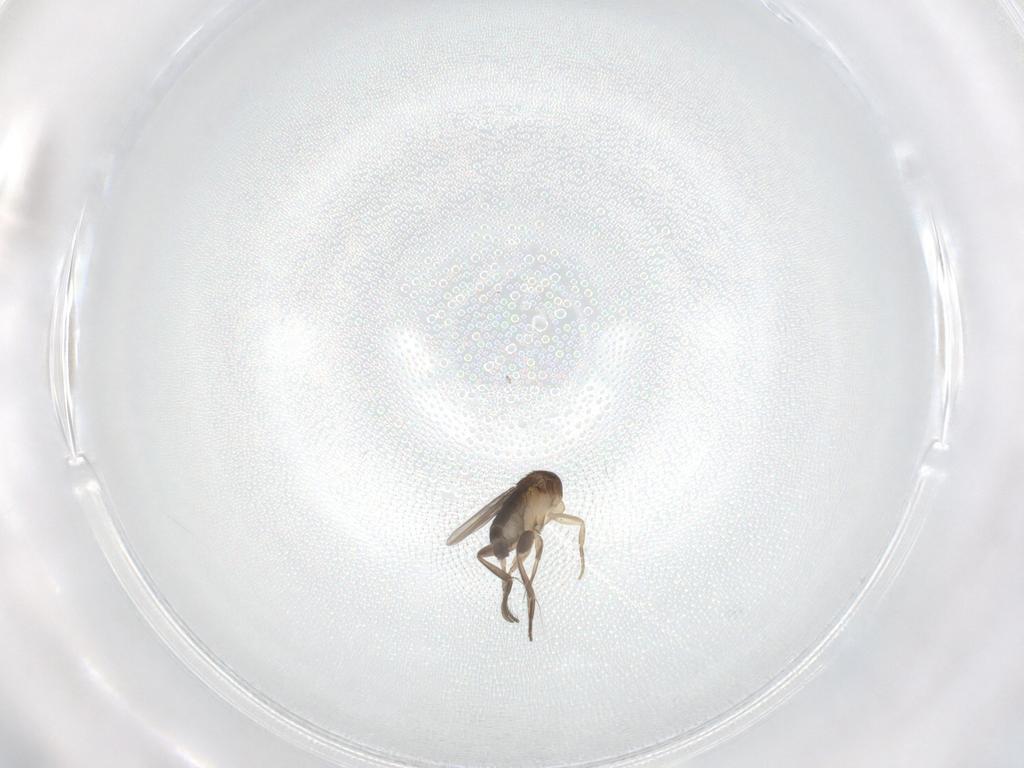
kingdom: Animalia
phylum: Arthropoda
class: Insecta
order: Diptera
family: Phoridae
